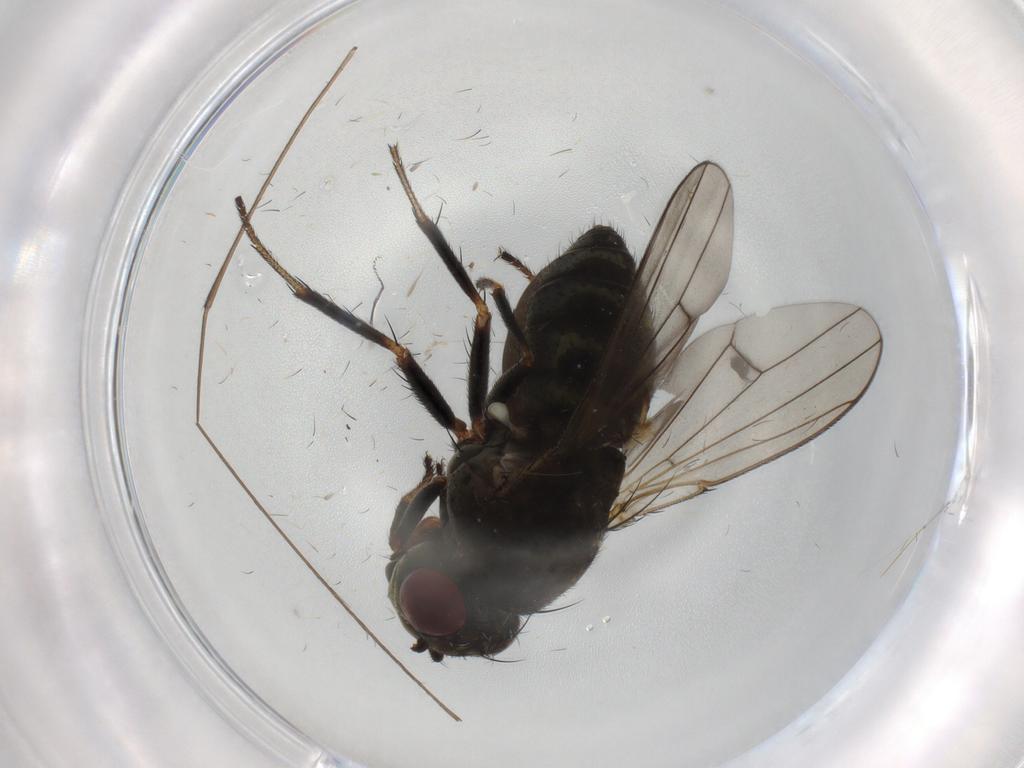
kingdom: Animalia
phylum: Arthropoda
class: Insecta
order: Diptera
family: Ephydridae
